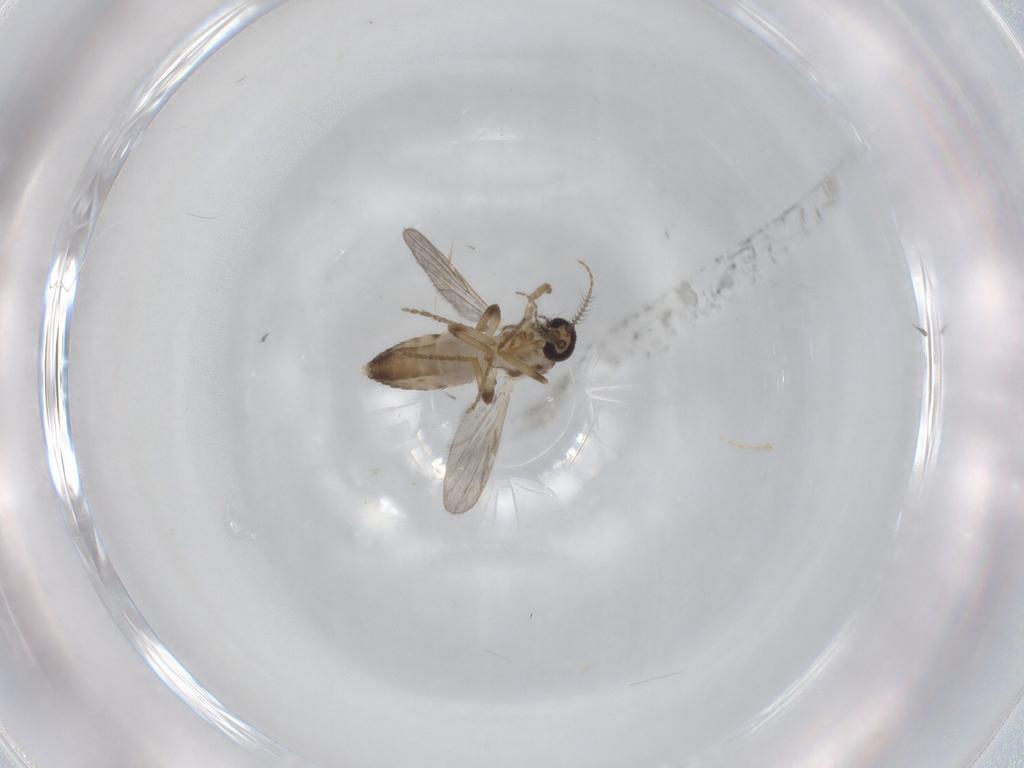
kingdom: Animalia
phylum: Arthropoda
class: Insecta
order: Diptera
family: Ceratopogonidae
